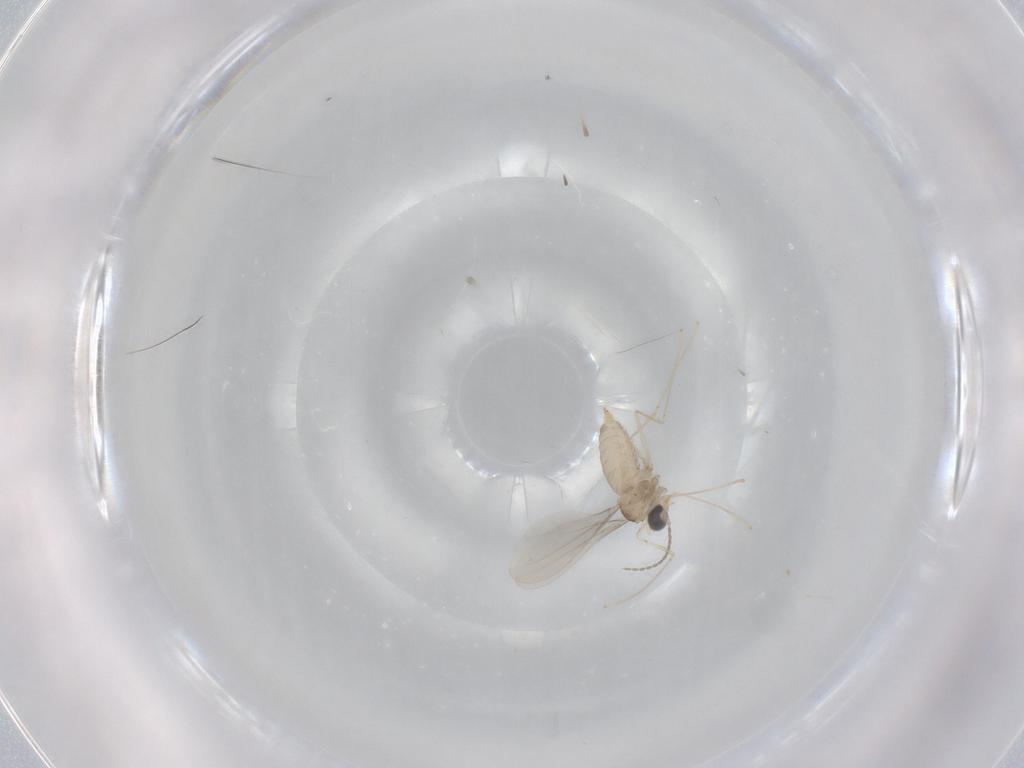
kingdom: Animalia
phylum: Arthropoda
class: Insecta
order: Diptera
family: Cecidomyiidae
